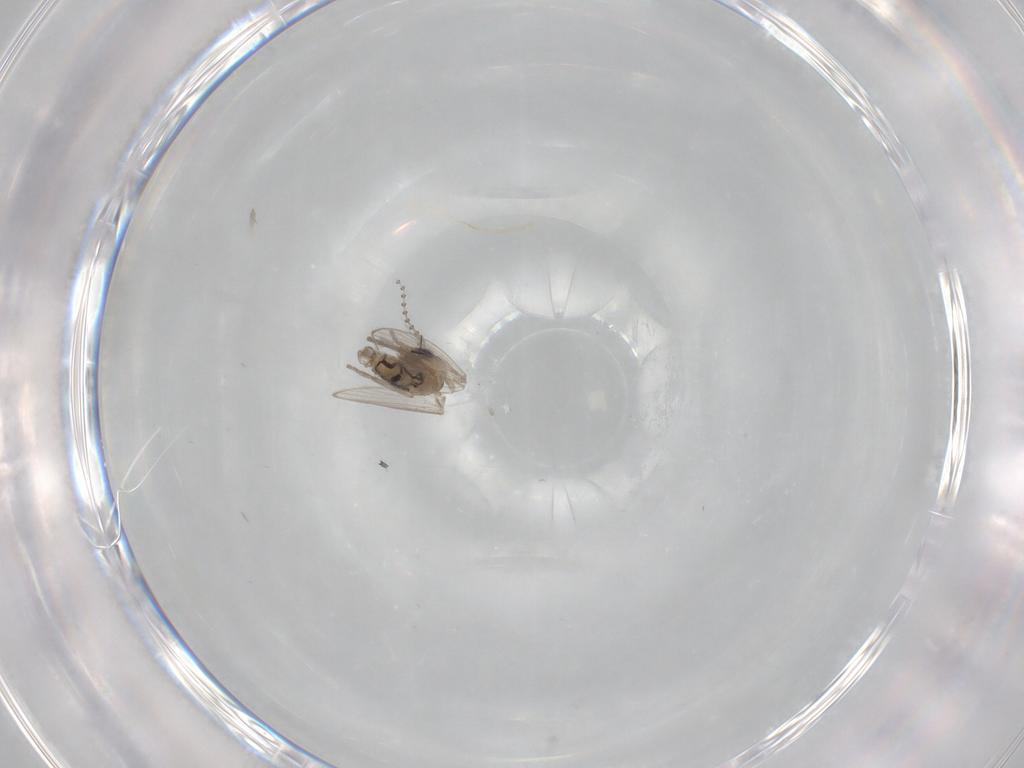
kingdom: Animalia
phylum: Arthropoda
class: Insecta
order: Diptera
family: Psychodidae
